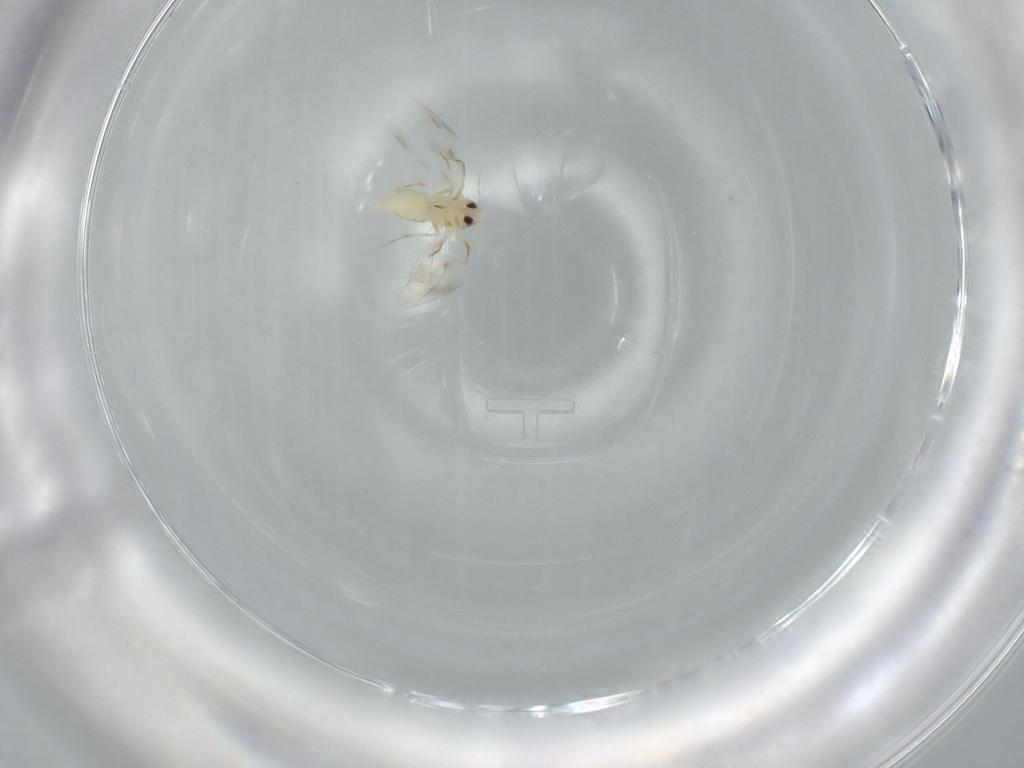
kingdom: Animalia
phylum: Arthropoda
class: Insecta
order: Hemiptera
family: Aleyrodidae
